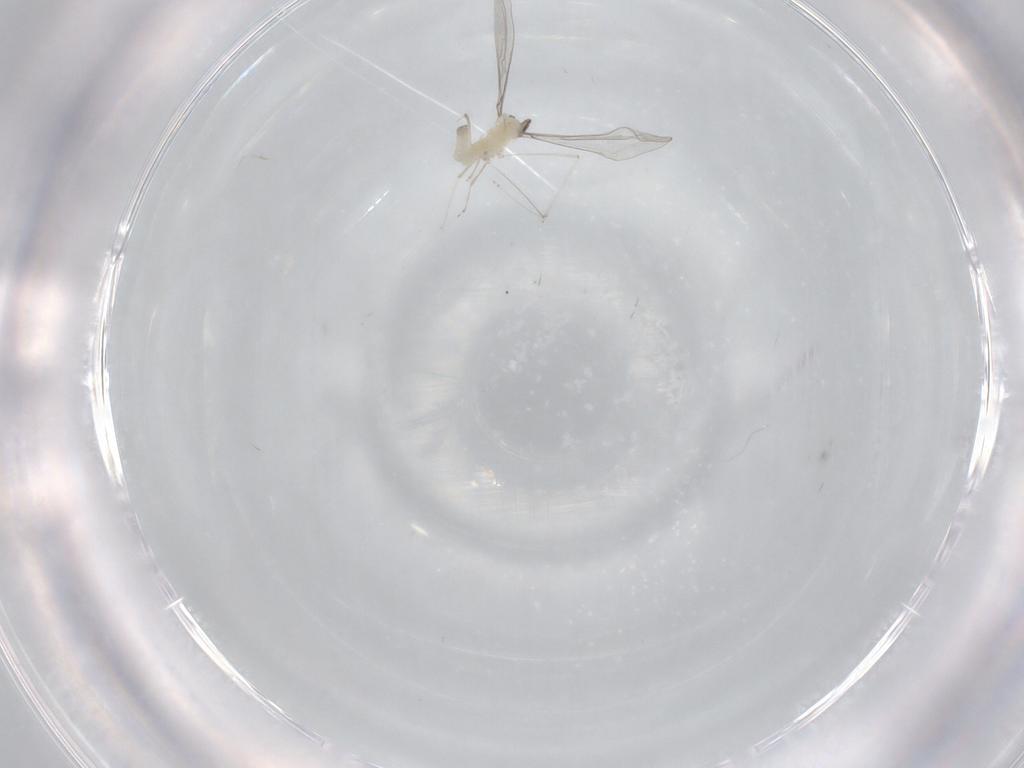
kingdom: Animalia
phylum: Arthropoda
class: Insecta
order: Diptera
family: Cecidomyiidae
